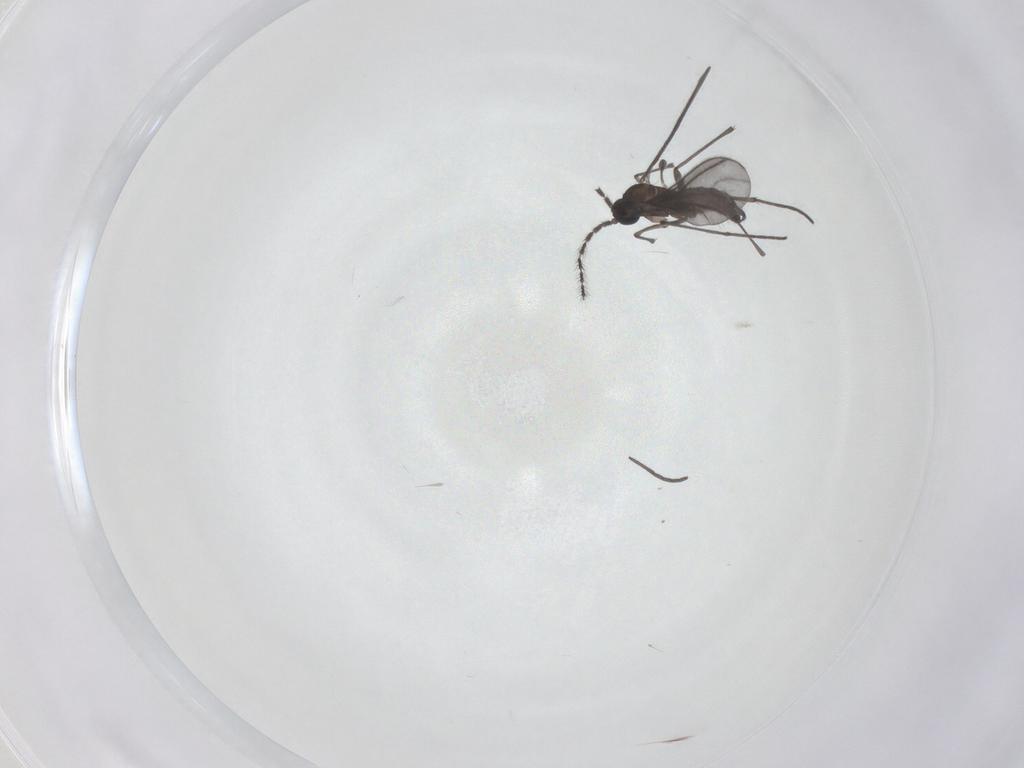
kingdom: Animalia
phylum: Arthropoda
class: Insecta
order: Diptera
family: Sciaridae
